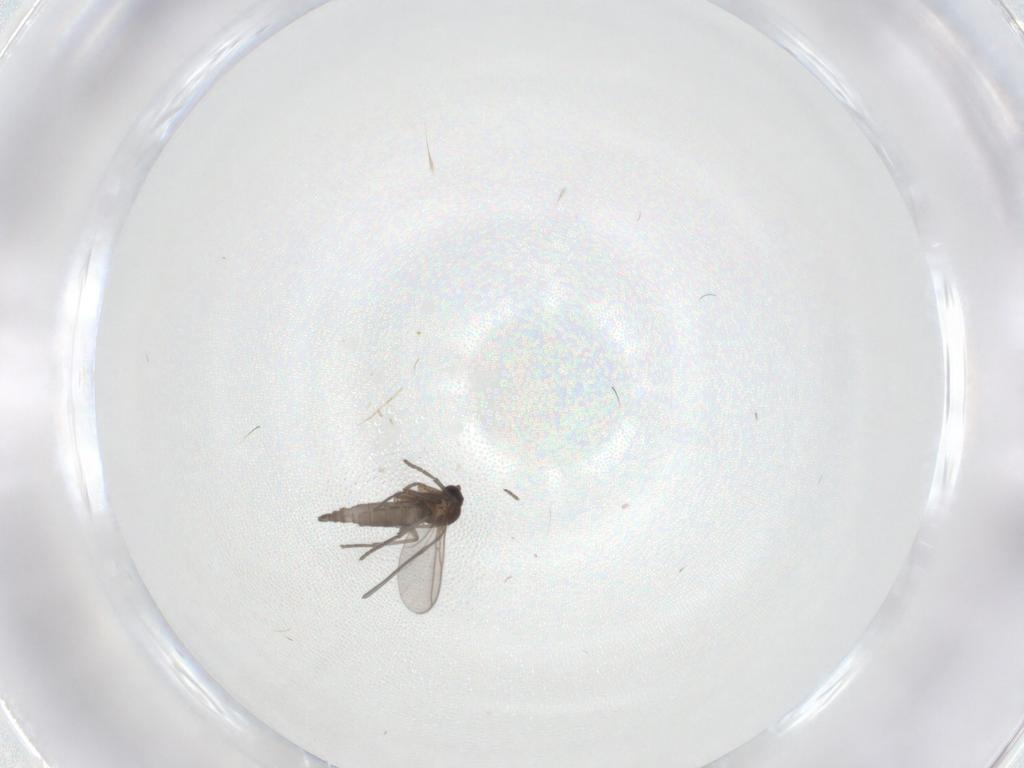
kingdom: Animalia
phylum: Arthropoda
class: Insecta
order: Diptera
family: Sciaridae
